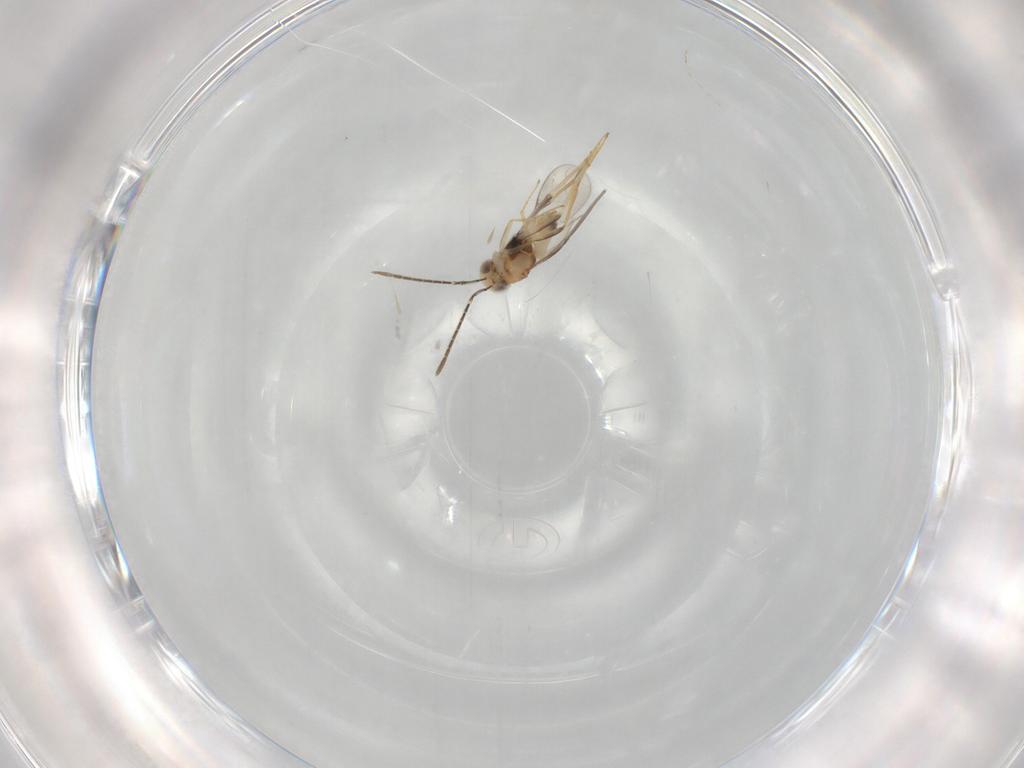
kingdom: Animalia
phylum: Arthropoda
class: Insecta
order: Hymenoptera
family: Encyrtidae
